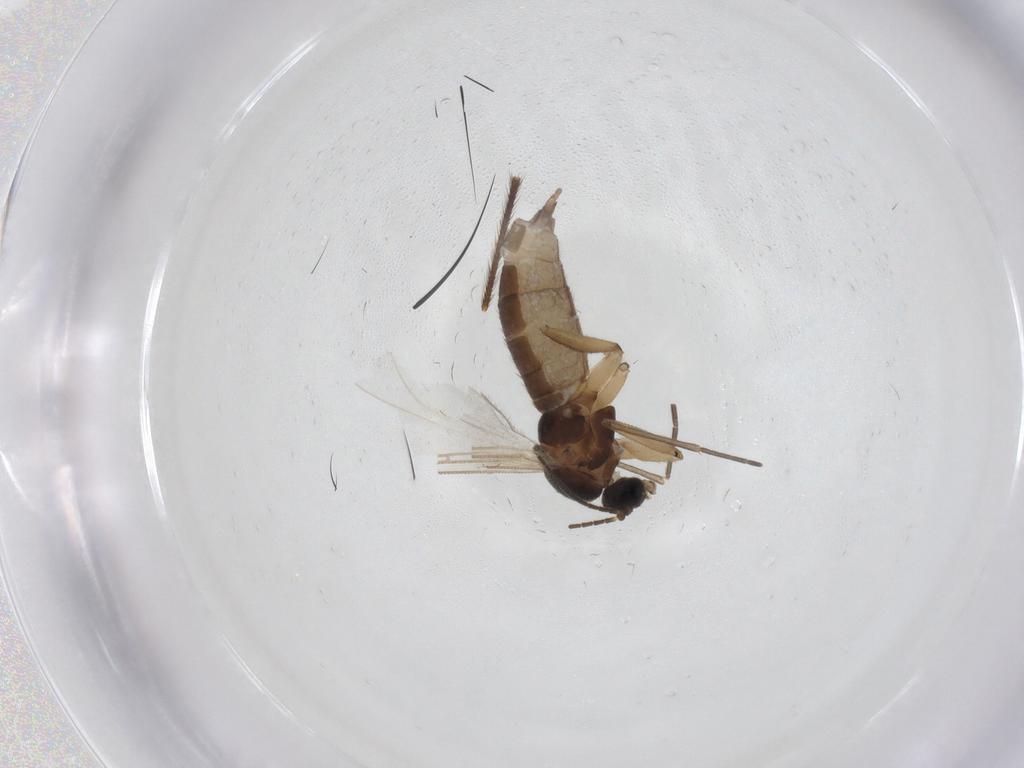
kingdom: Animalia
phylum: Arthropoda
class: Insecta
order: Diptera
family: Sciaridae
